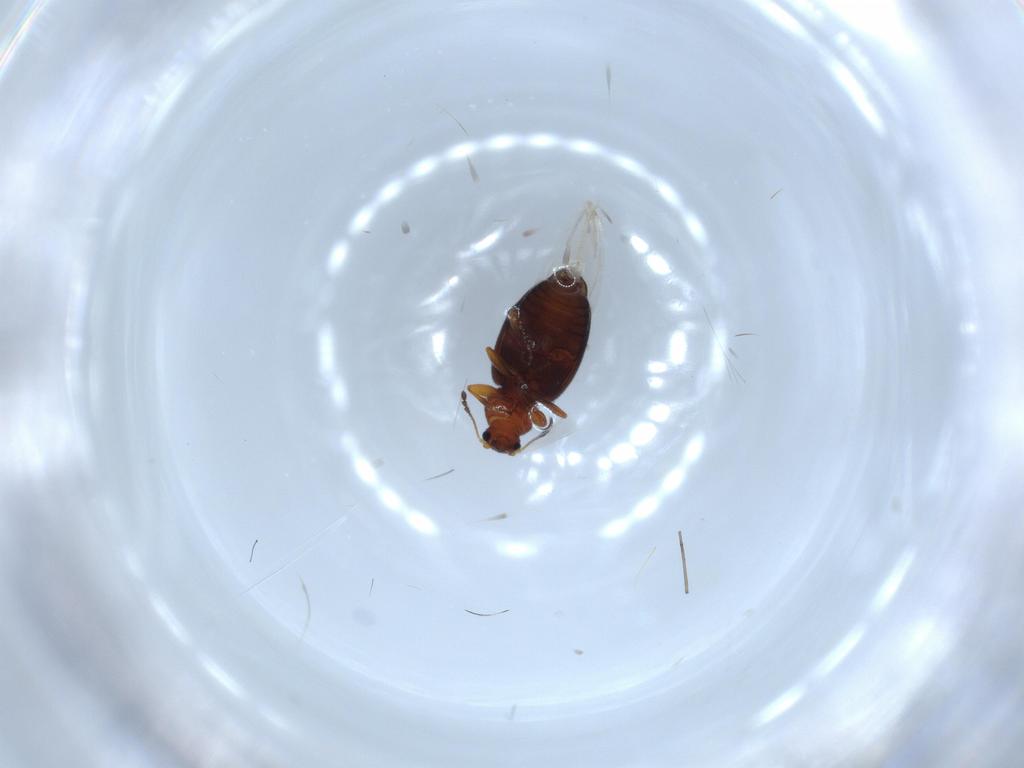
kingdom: Animalia
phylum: Arthropoda
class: Insecta
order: Coleoptera
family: Latridiidae
